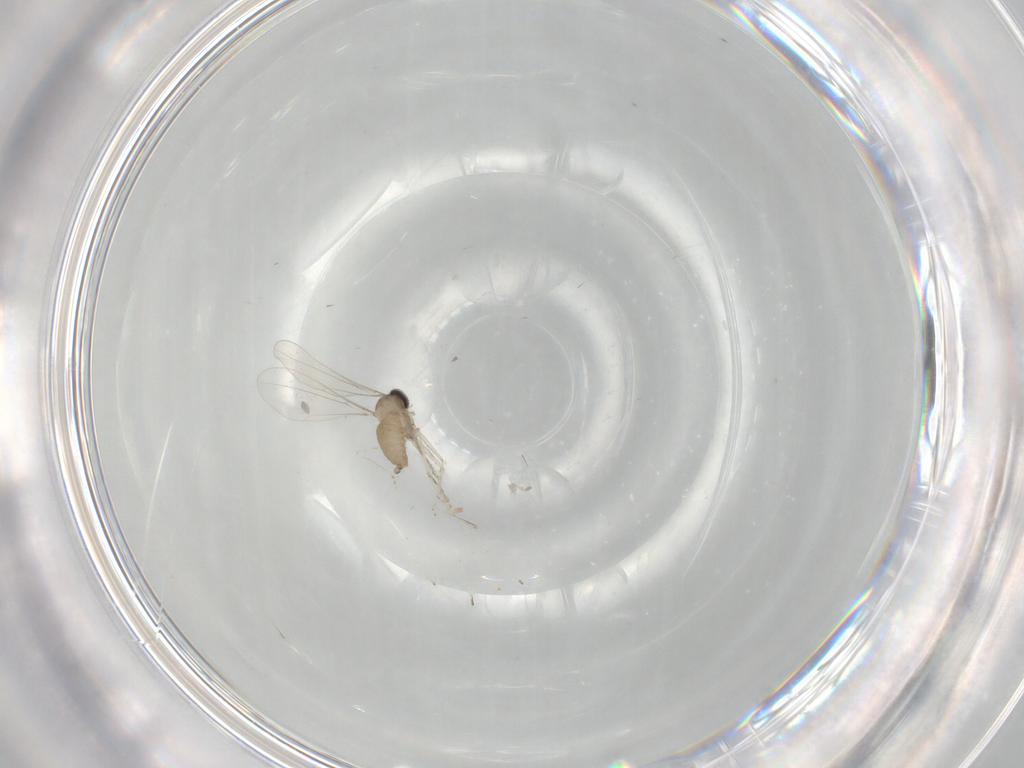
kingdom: Animalia
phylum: Arthropoda
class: Insecta
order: Diptera
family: Cecidomyiidae
